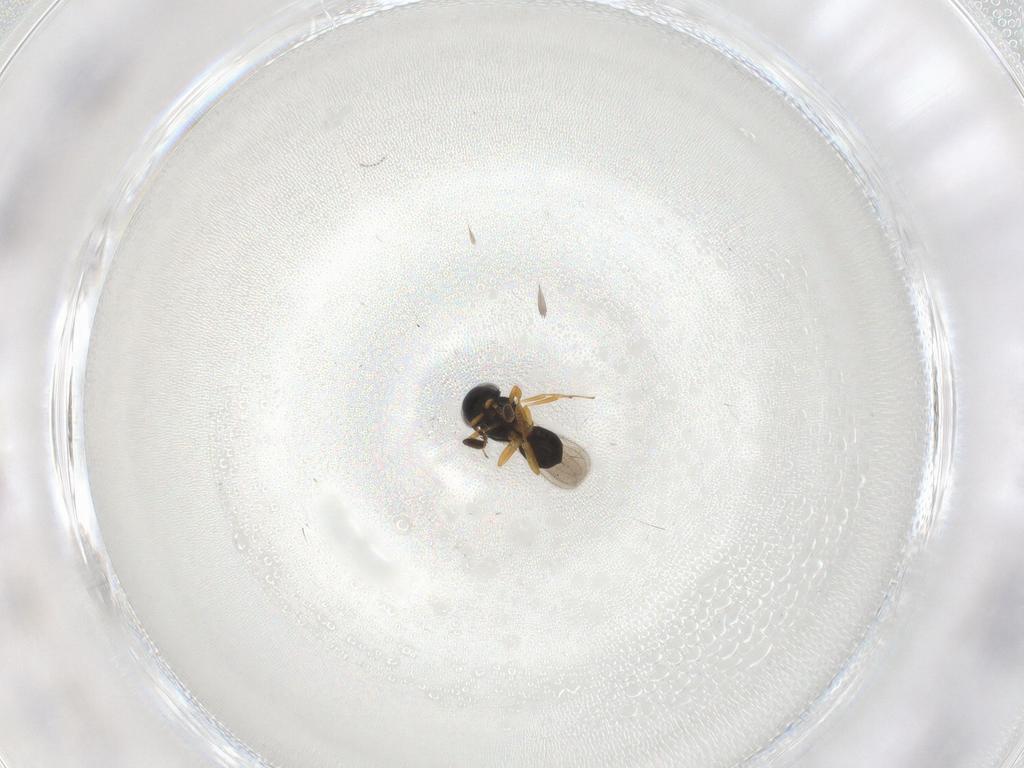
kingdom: Animalia
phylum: Arthropoda
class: Insecta
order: Hymenoptera
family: Scelionidae
